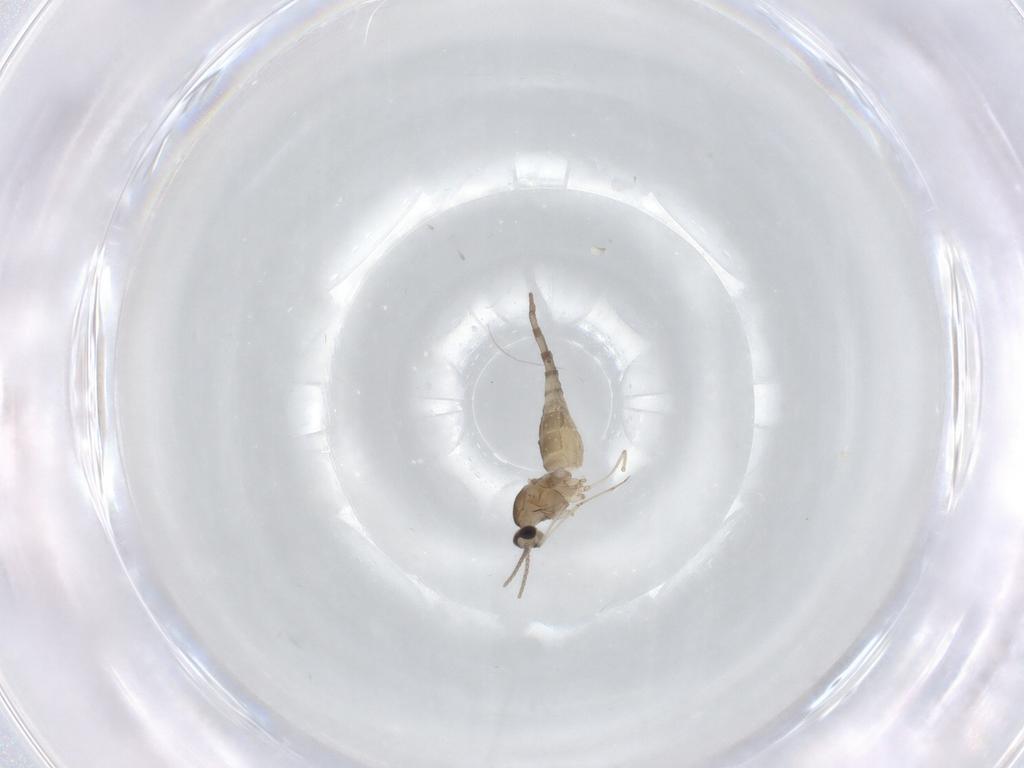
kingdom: Animalia
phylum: Arthropoda
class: Insecta
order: Diptera
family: Cecidomyiidae
